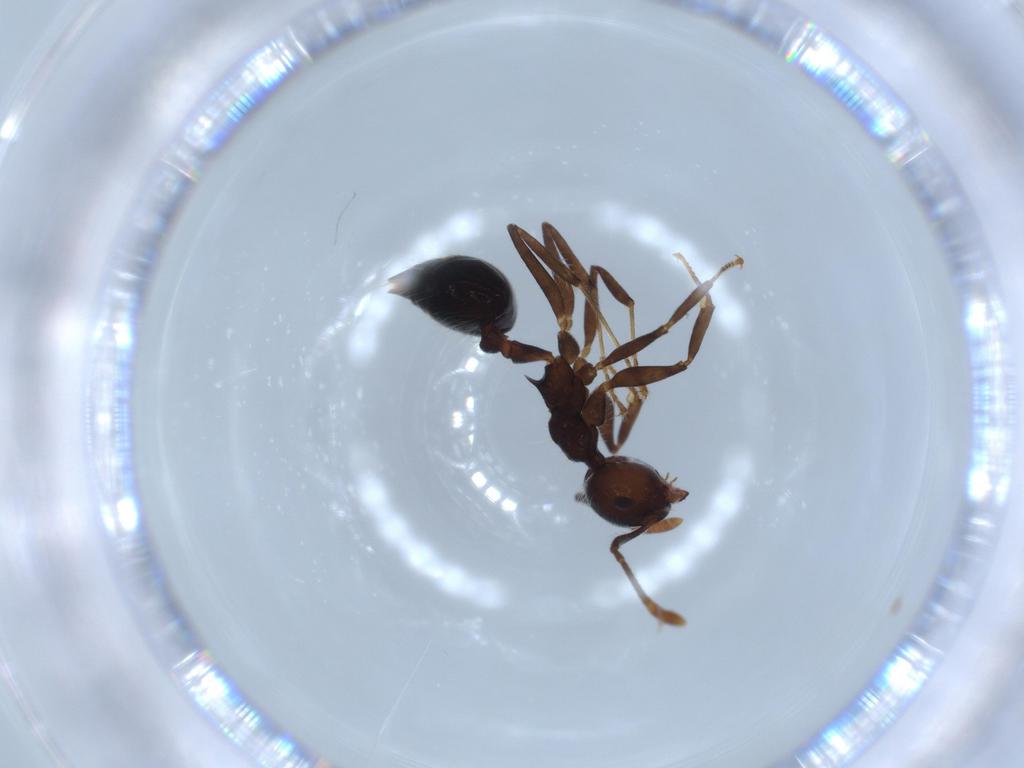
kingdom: Animalia
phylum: Arthropoda
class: Insecta
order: Hymenoptera
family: Formicidae
